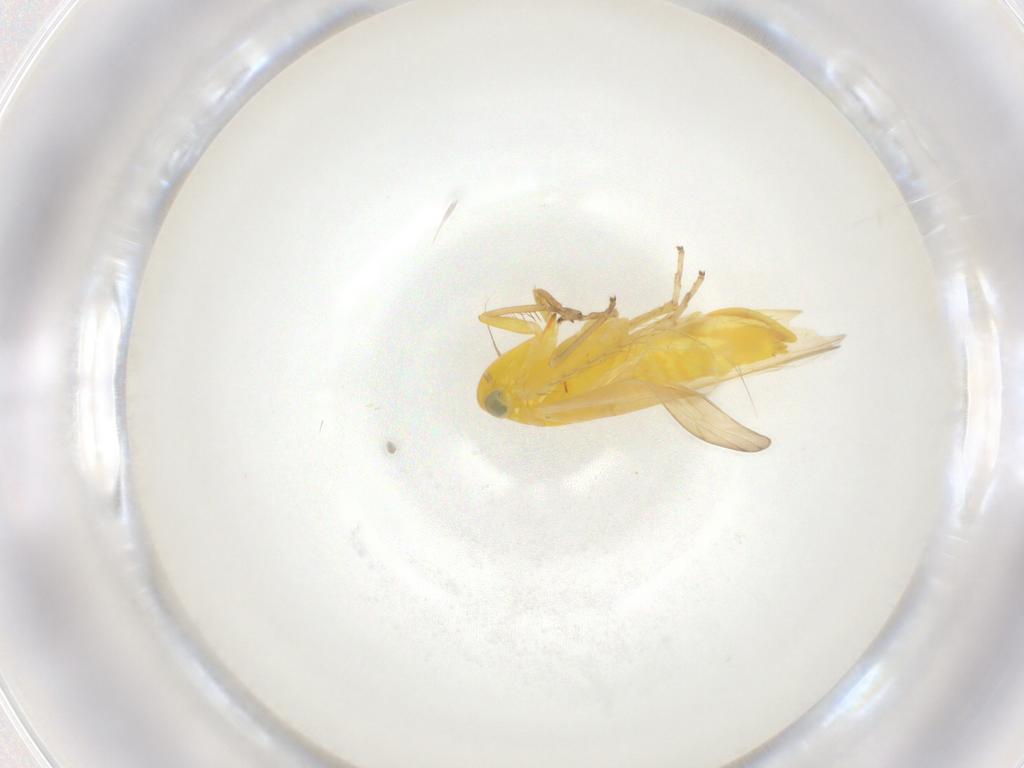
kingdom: Animalia
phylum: Arthropoda
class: Insecta
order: Hemiptera
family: Cicadellidae
